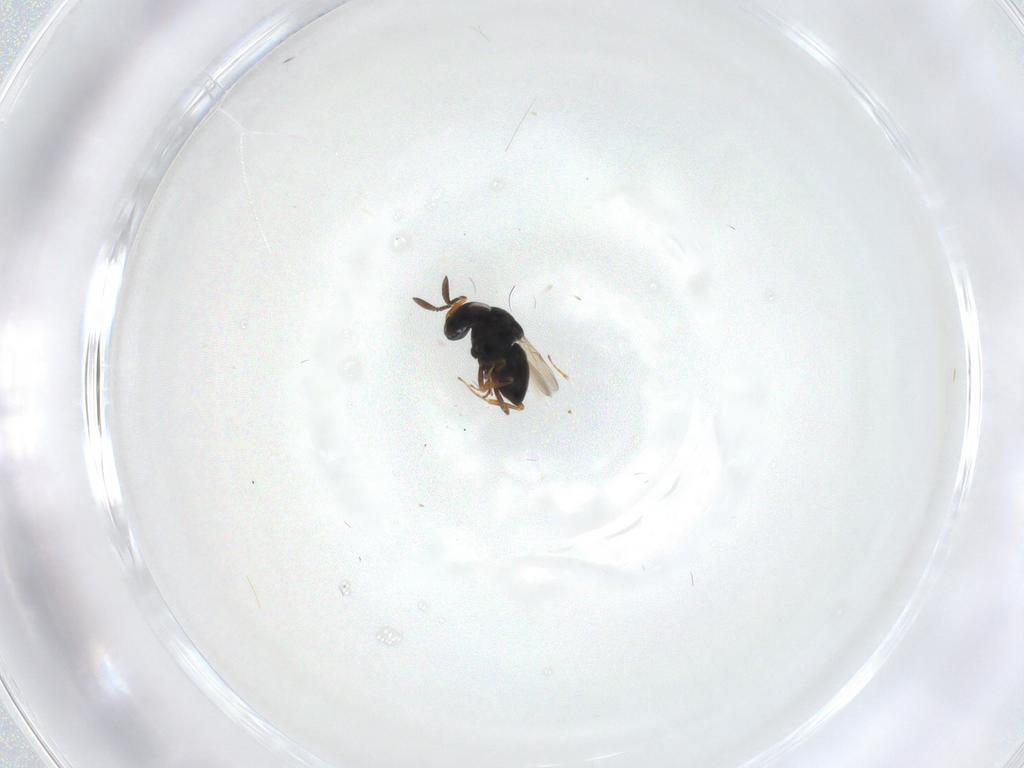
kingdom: Animalia
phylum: Arthropoda
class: Insecta
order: Hymenoptera
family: Scelionidae
